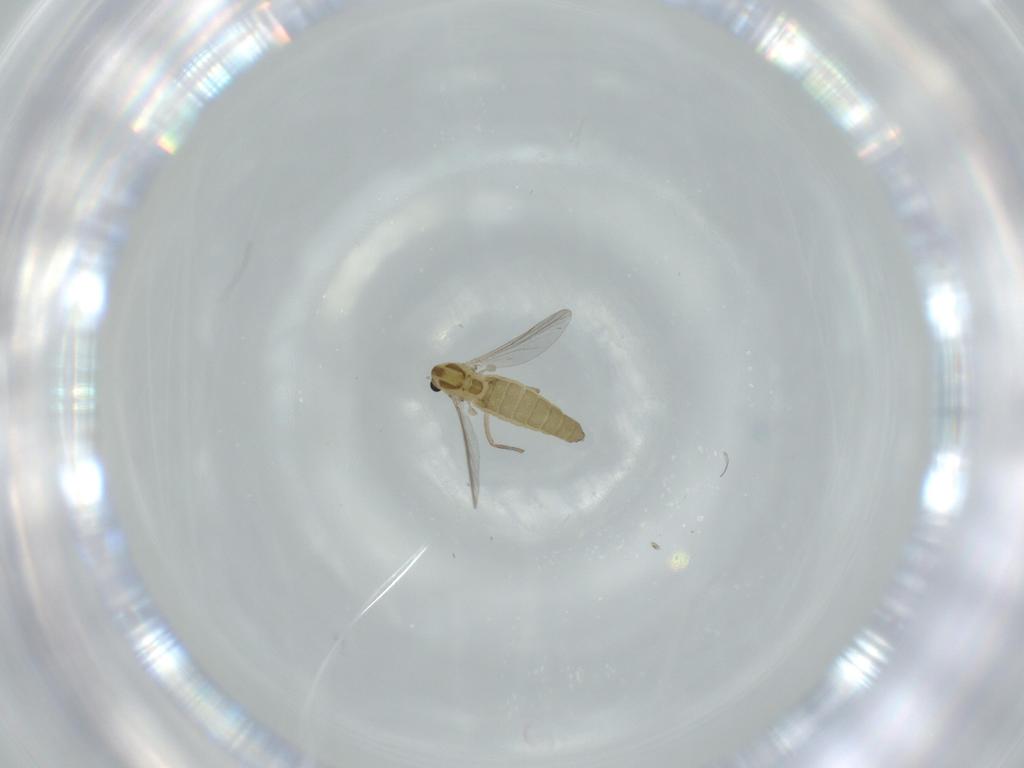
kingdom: Animalia
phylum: Arthropoda
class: Insecta
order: Diptera
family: Chironomidae
